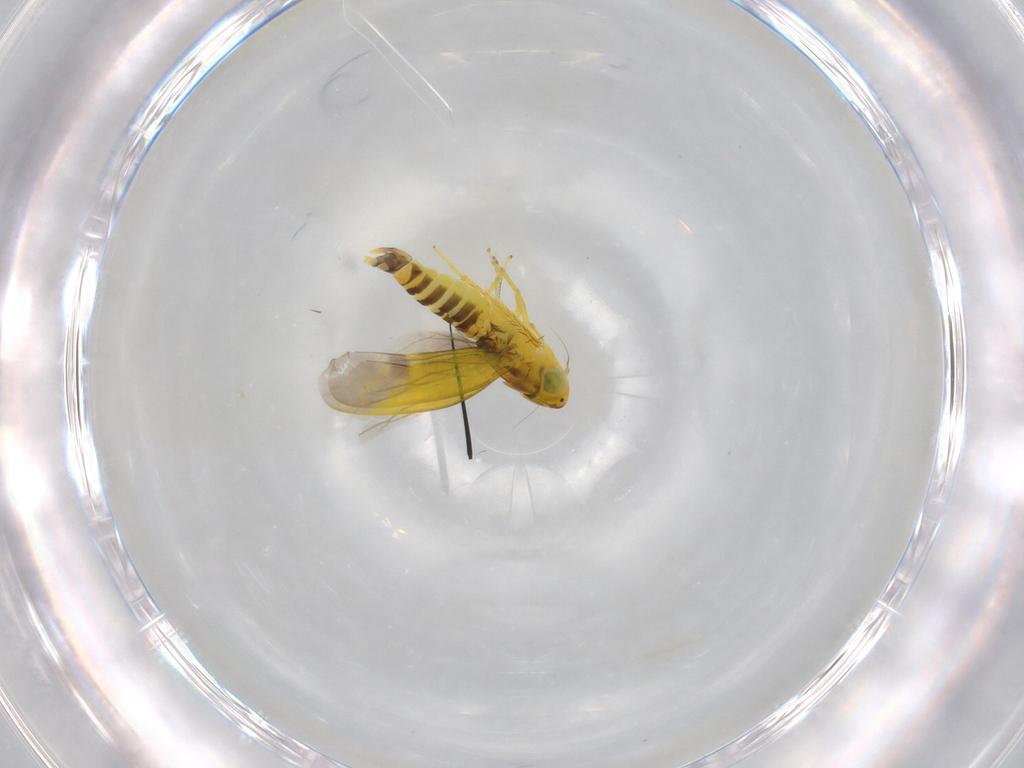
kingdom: Animalia
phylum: Arthropoda
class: Insecta
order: Hemiptera
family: Cicadellidae
